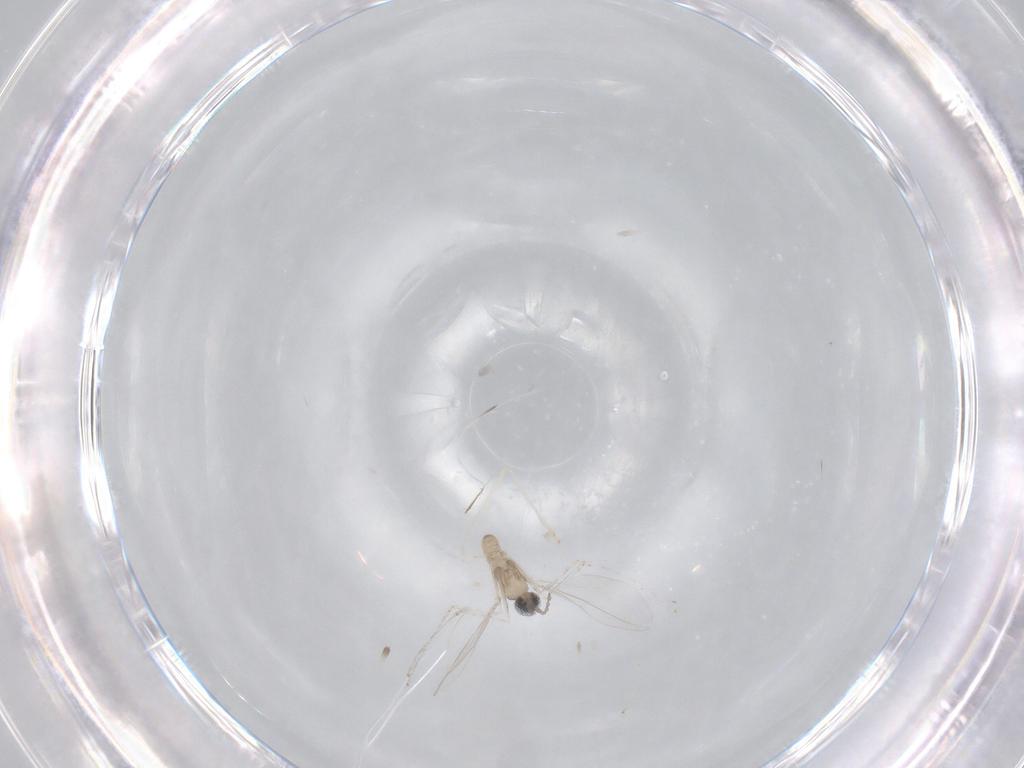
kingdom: Animalia
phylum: Arthropoda
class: Insecta
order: Diptera
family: Cecidomyiidae
